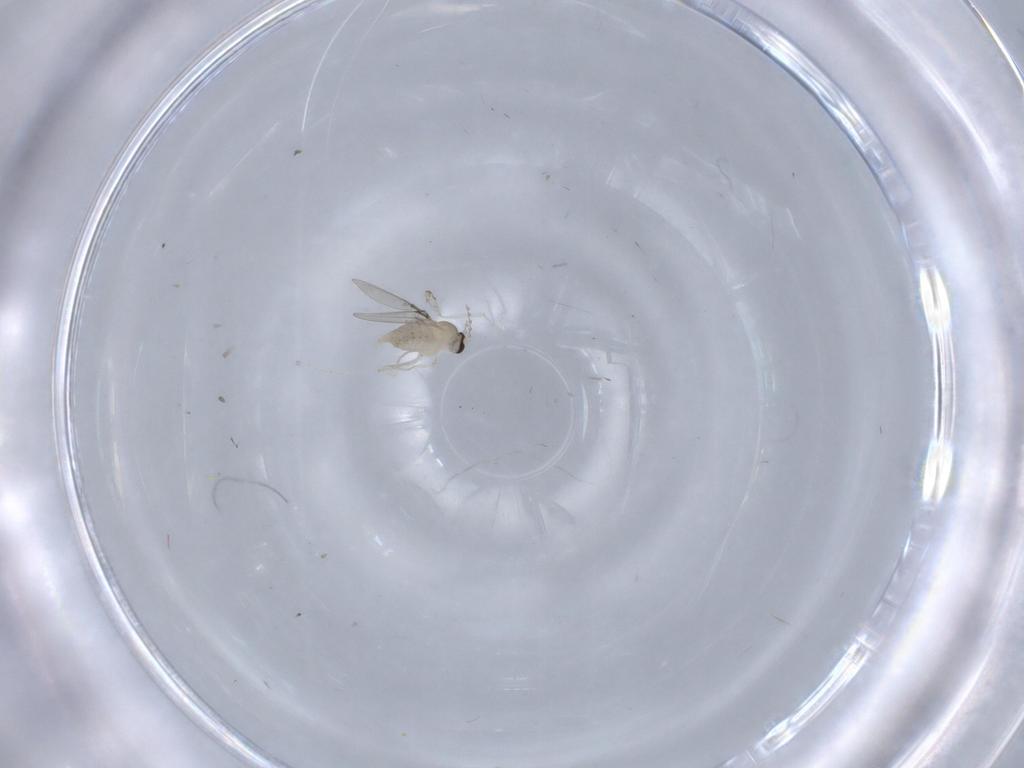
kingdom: Animalia
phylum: Arthropoda
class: Insecta
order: Diptera
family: Cecidomyiidae
